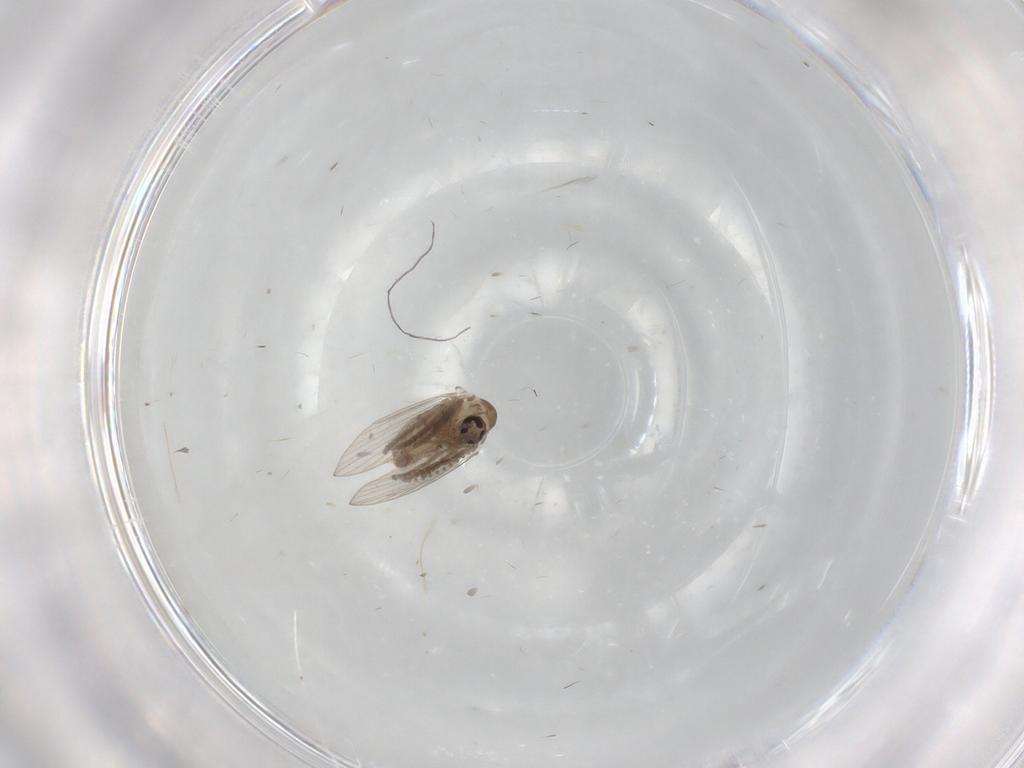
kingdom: Animalia
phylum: Arthropoda
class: Insecta
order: Diptera
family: Psychodidae
